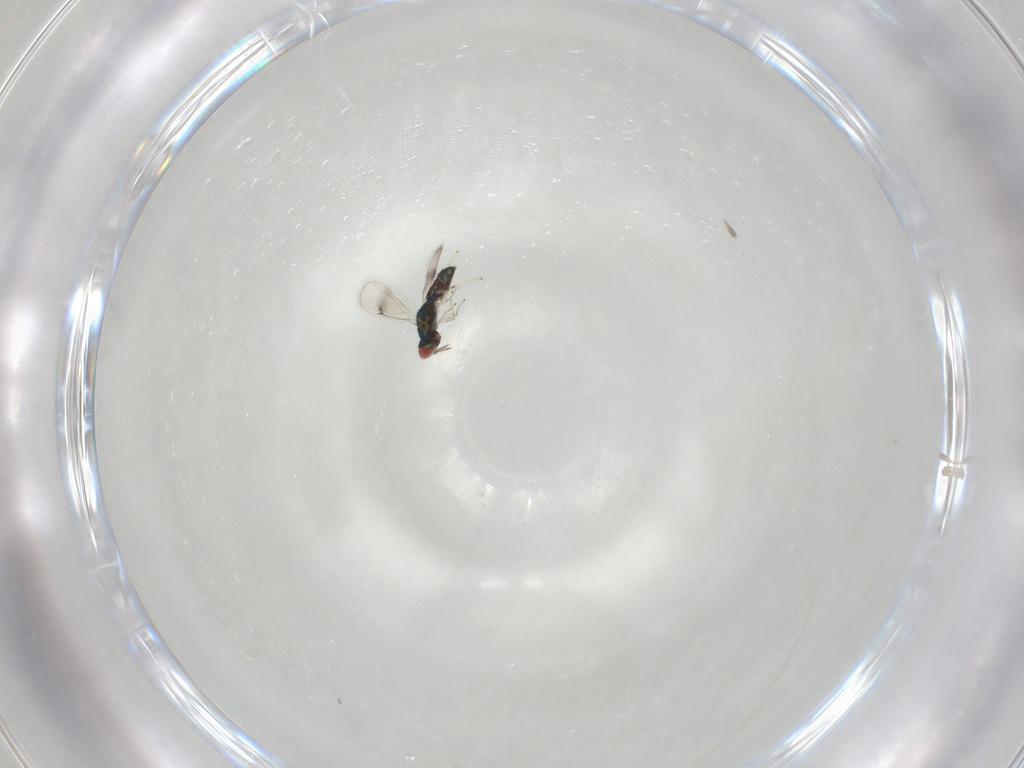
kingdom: Animalia
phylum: Arthropoda
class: Insecta
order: Hymenoptera
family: Eulophidae
